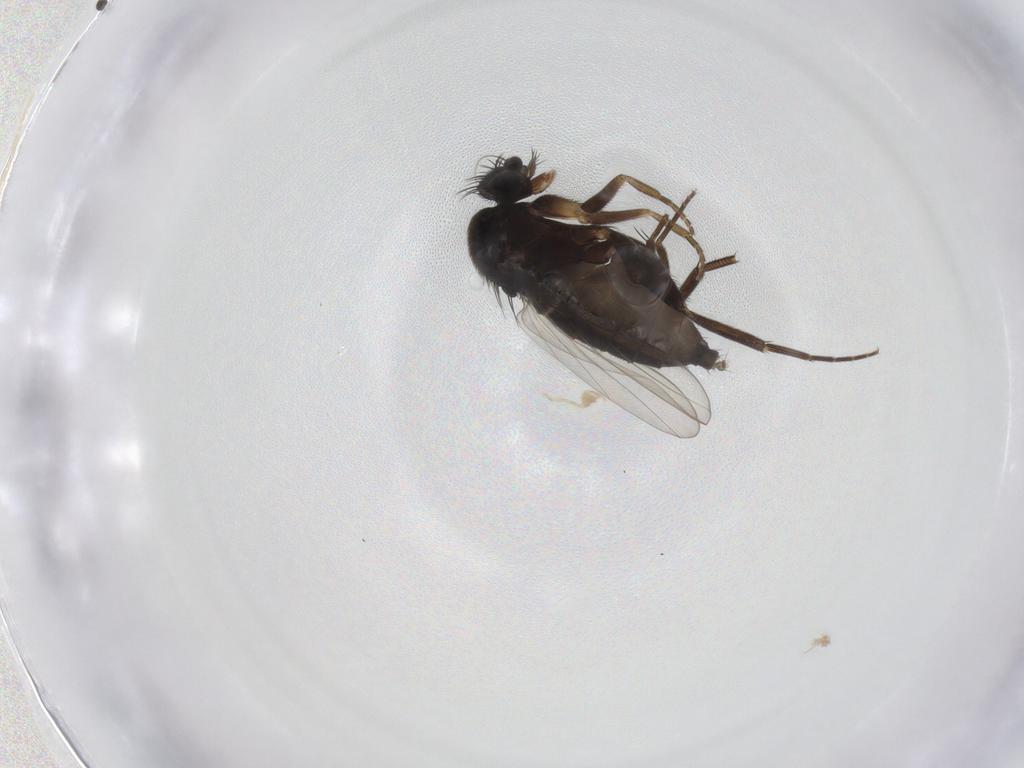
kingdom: Animalia
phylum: Arthropoda
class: Insecta
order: Diptera
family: Phoridae
